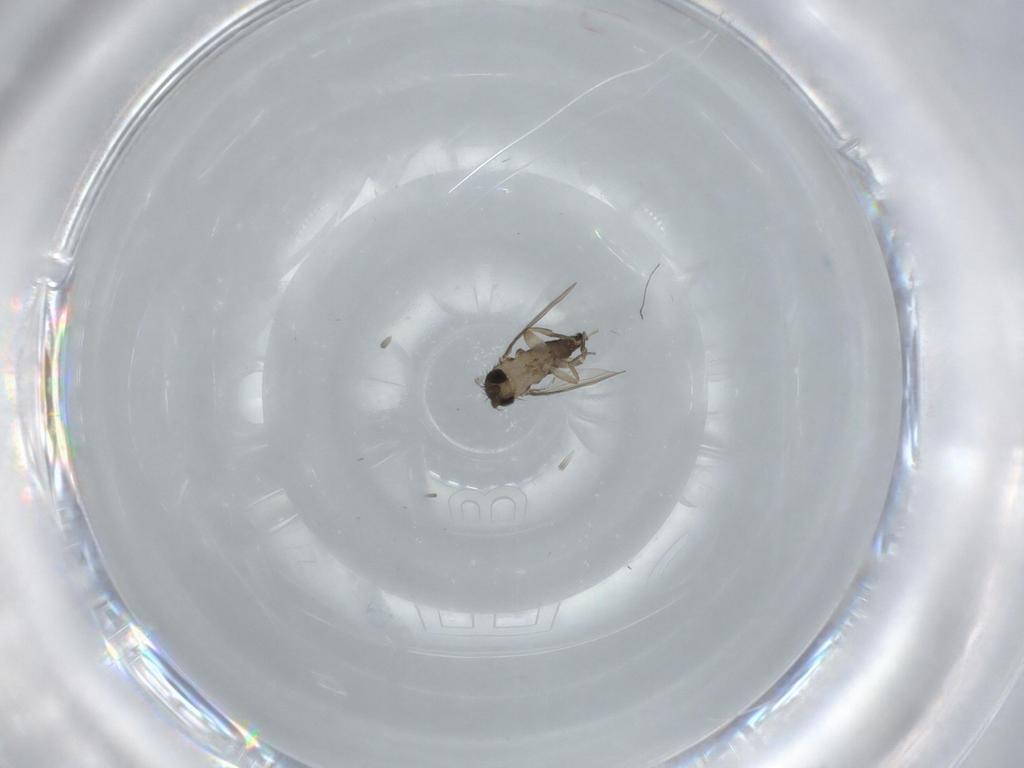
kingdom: Animalia
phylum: Arthropoda
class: Insecta
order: Diptera
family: Phoridae
